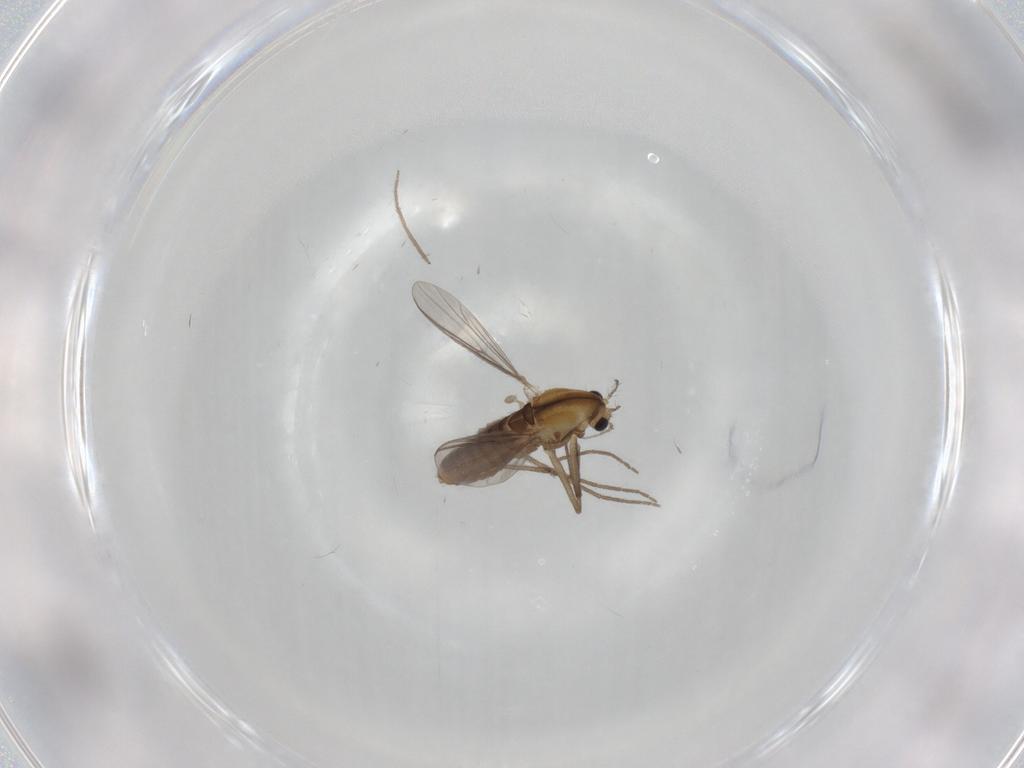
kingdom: Animalia
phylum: Arthropoda
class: Insecta
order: Diptera
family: Chironomidae
